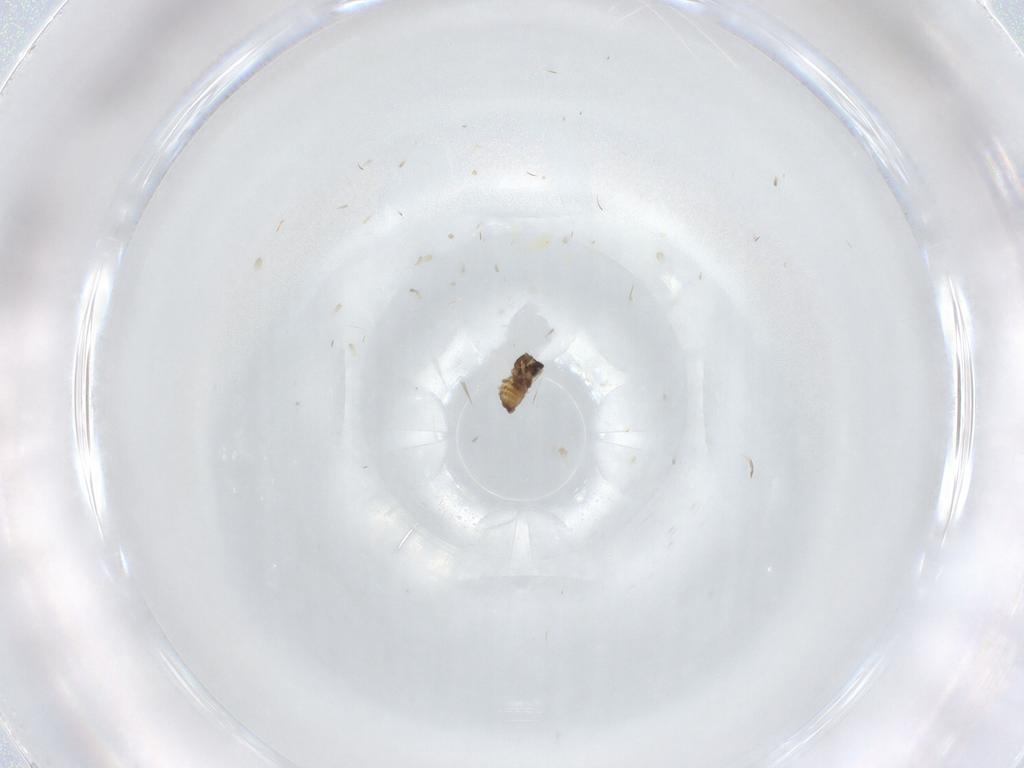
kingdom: Animalia
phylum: Arthropoda
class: Insecta
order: Diptera
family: Cecidomyiidae
